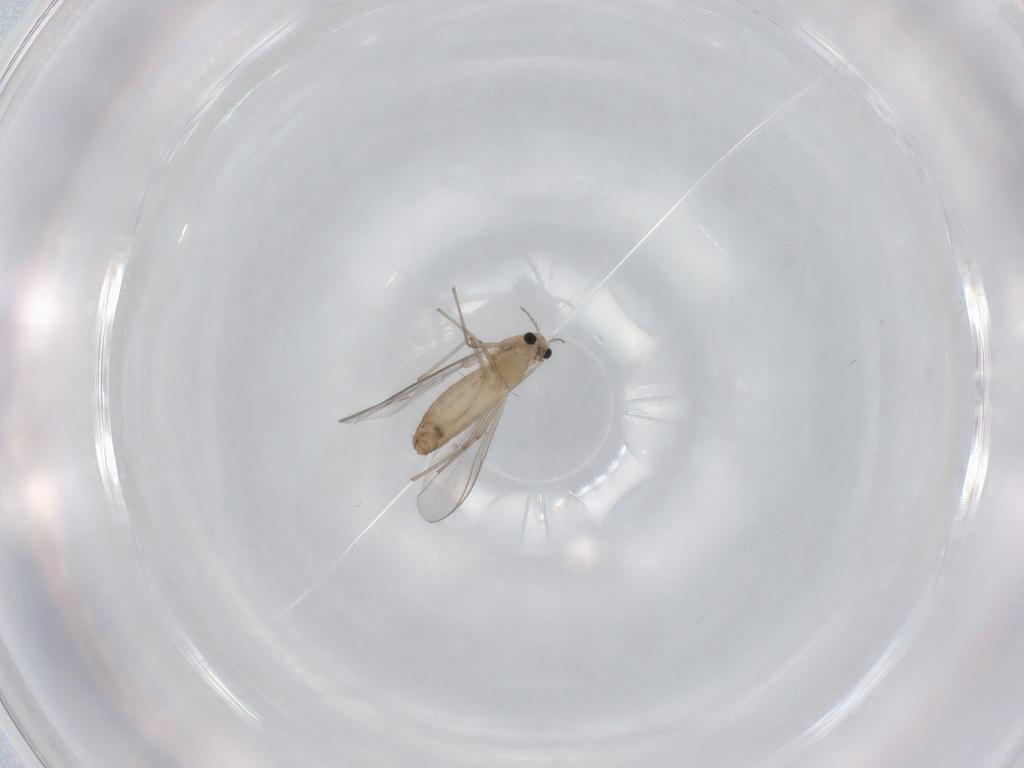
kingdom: Animalia
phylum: Arthropoda
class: Insecta
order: Diptera
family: Chironomidae
